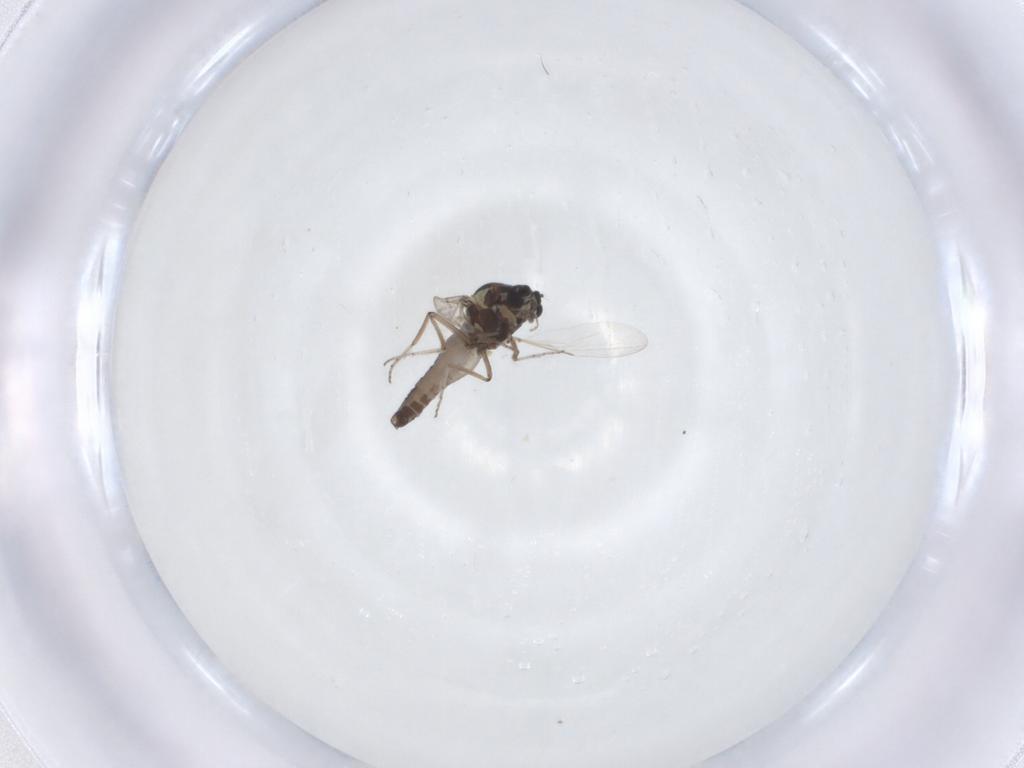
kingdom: Animalia
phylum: Arthropoda
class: Insecta
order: Diptera
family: Ceratopogonidae
